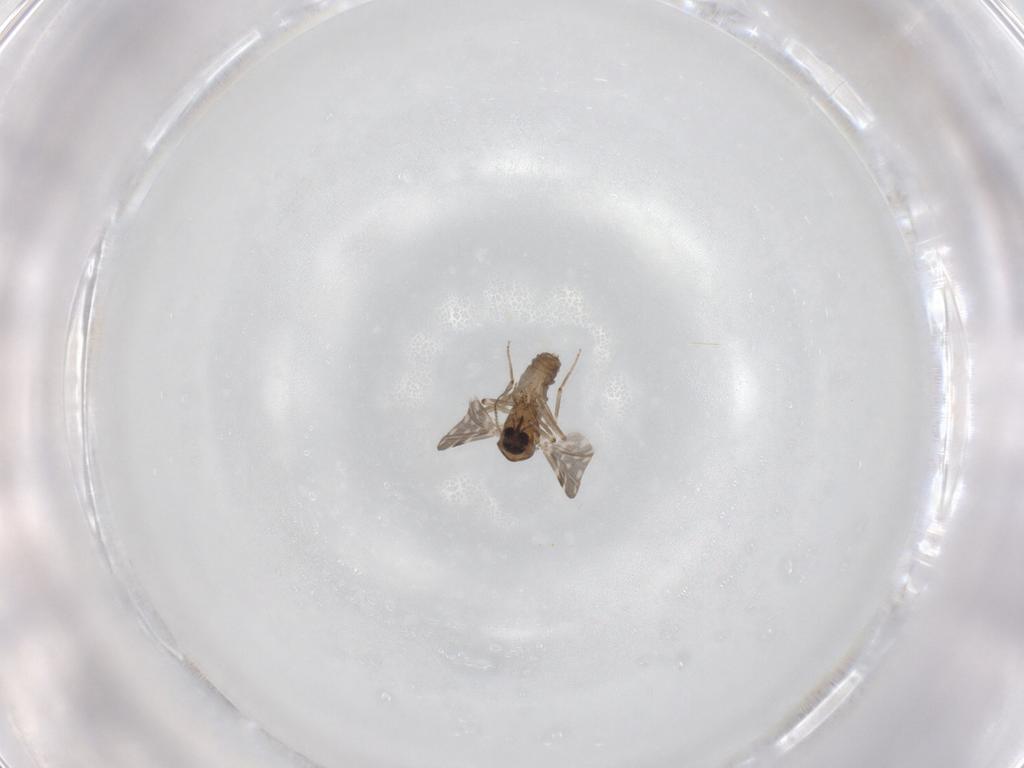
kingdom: Animalia
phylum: Arthropoda
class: Insecta
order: Diptera
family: Ceratopogonidae
